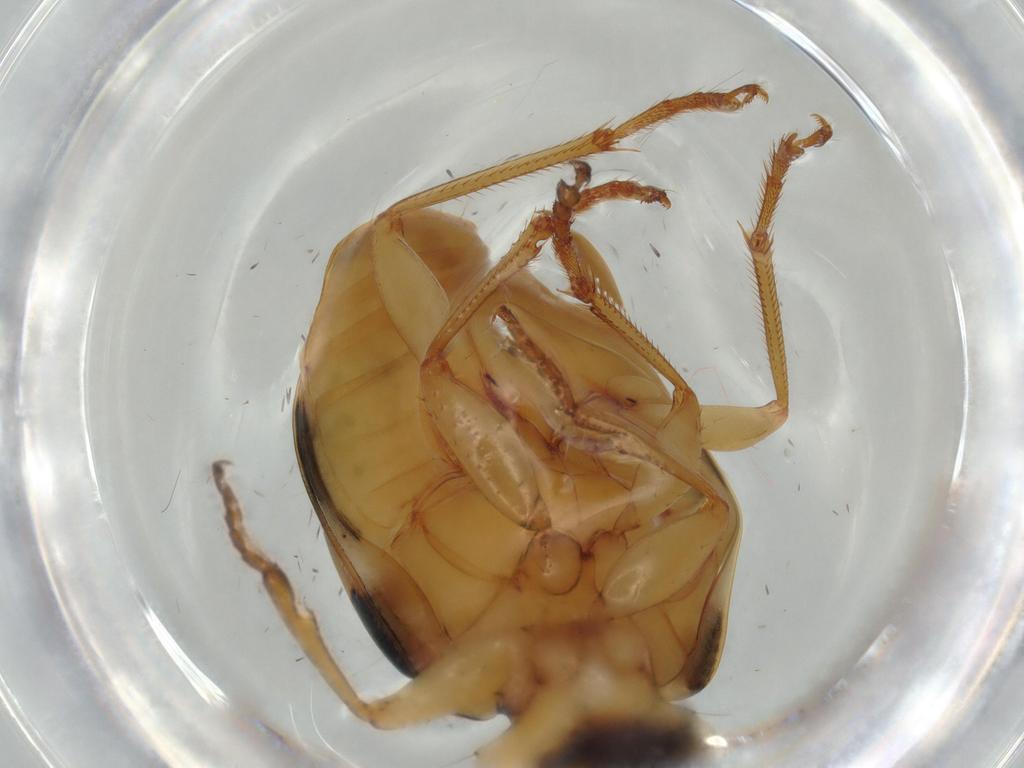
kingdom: Animalia
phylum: Arthropoda
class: Insecta
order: Coleoptera
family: Carabidae
